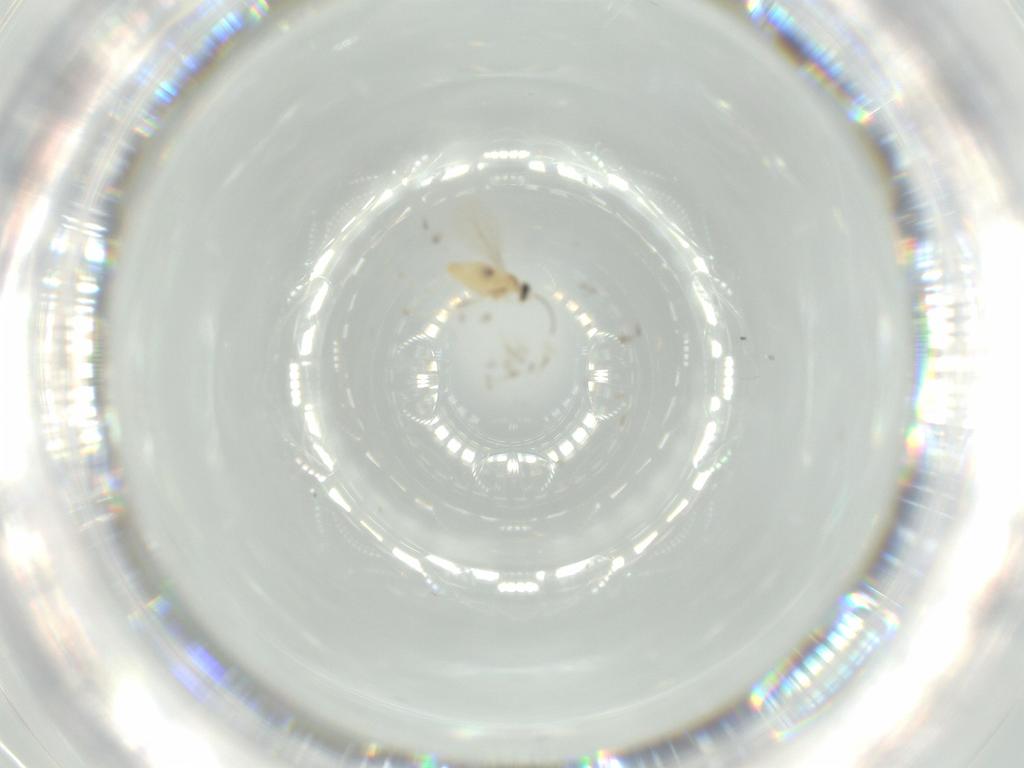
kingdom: Animalia
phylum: Arthropoda
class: Insecta
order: Diptera
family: Cecidomyiidae
